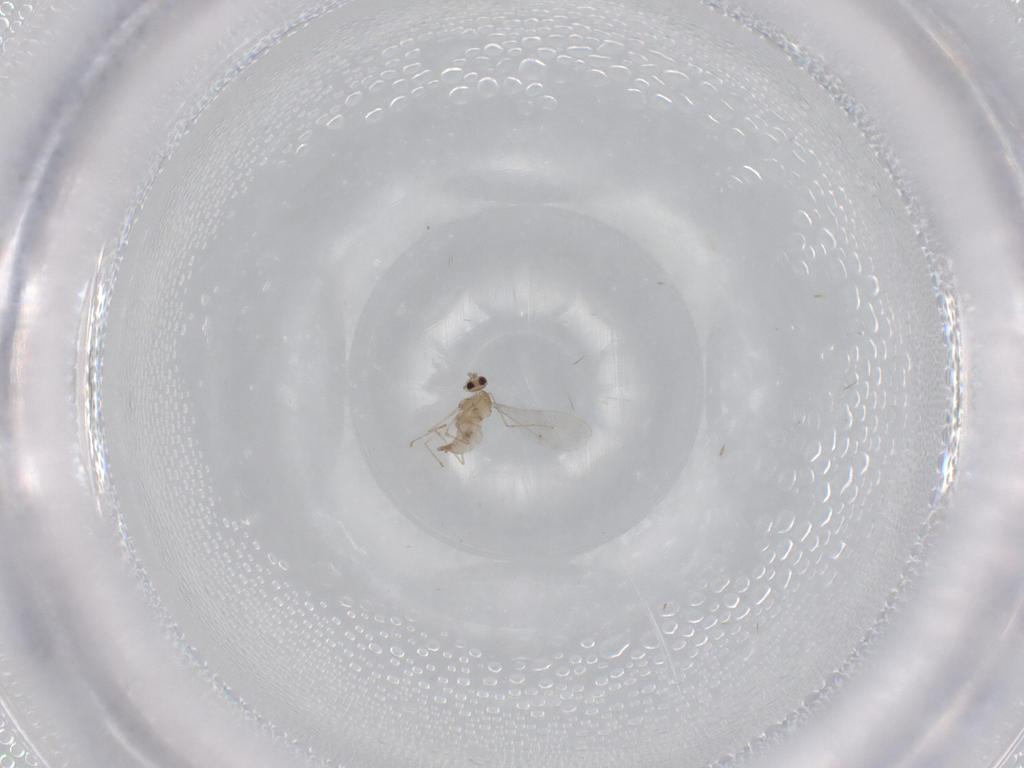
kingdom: Animalia
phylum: Arthropoda
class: Insecta
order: Diptera
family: Cecidomyiidae
